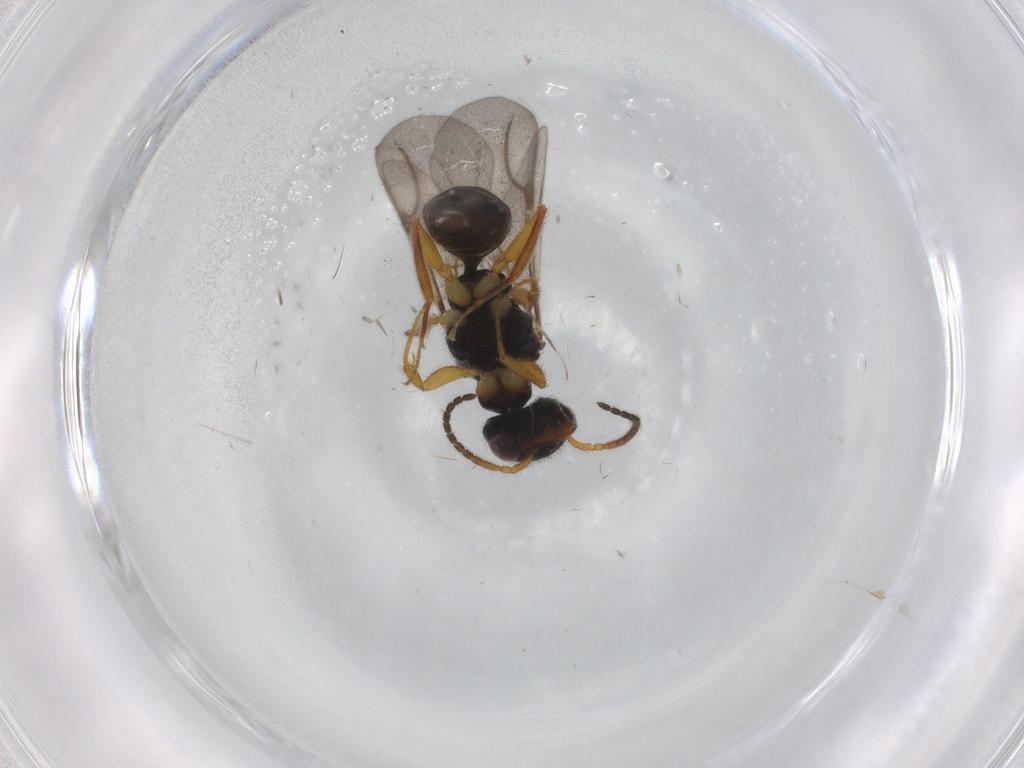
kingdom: Animalia
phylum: Arthropoda
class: Insecta
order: Hymenoptera
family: Bethylidae
